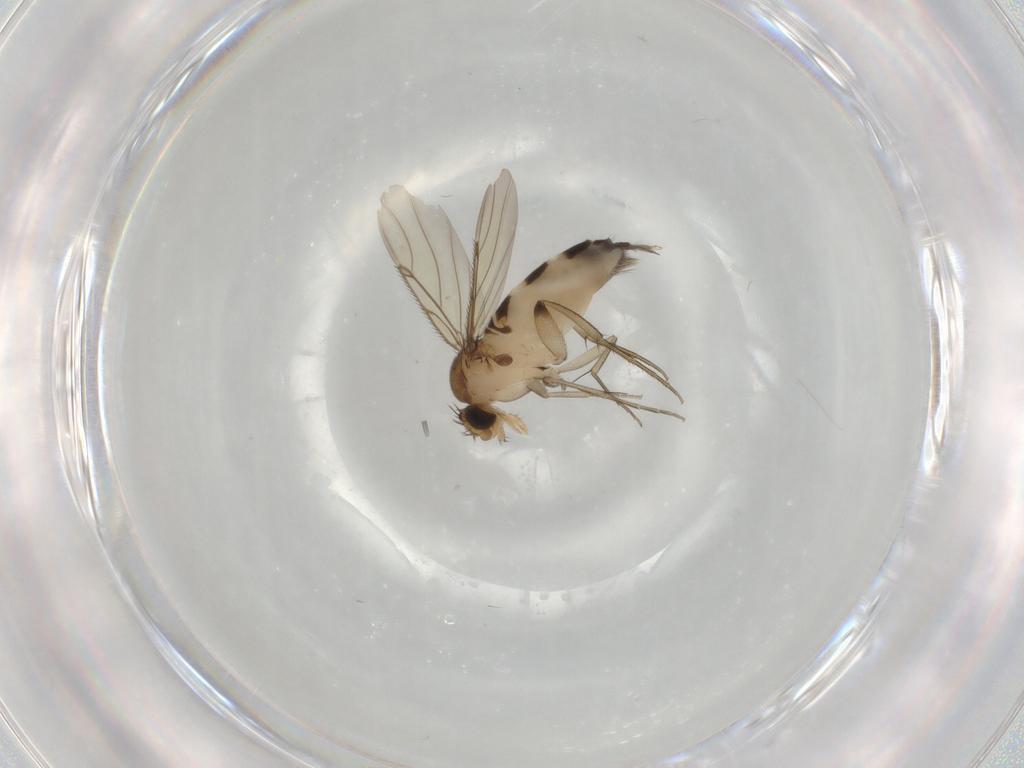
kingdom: Animalia
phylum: Arthropoda
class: Insecta
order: Diptera
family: Phoridae
